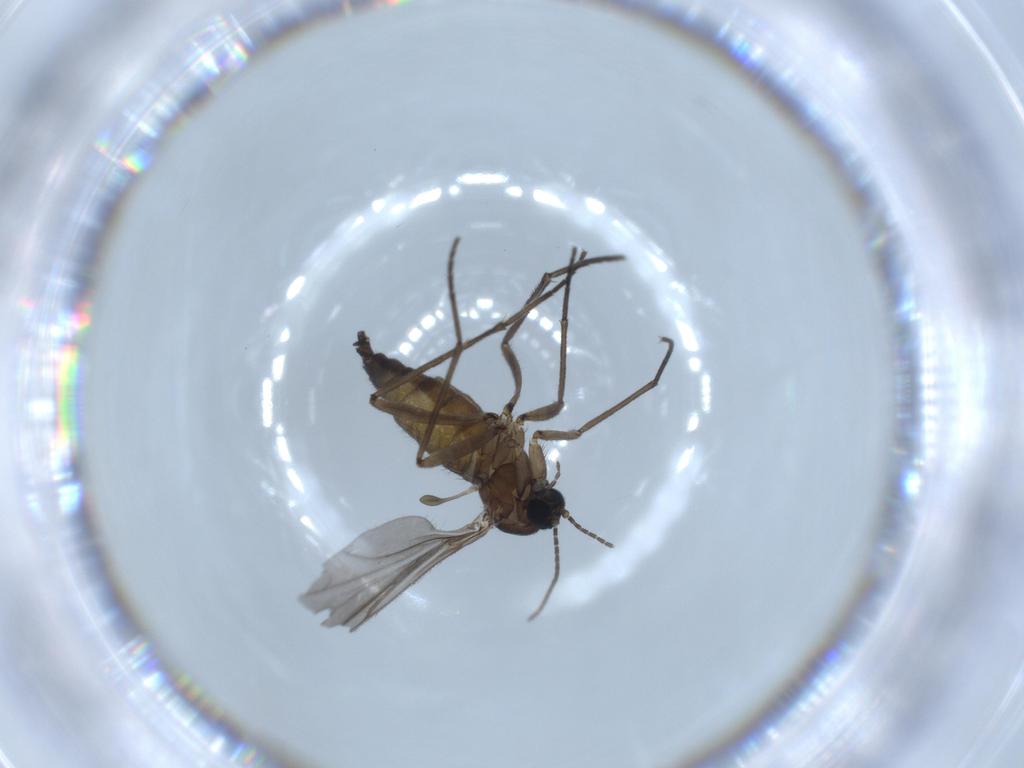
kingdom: Animalia
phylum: Arthropoda
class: Insecta
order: Diptera
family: Sciaridae
